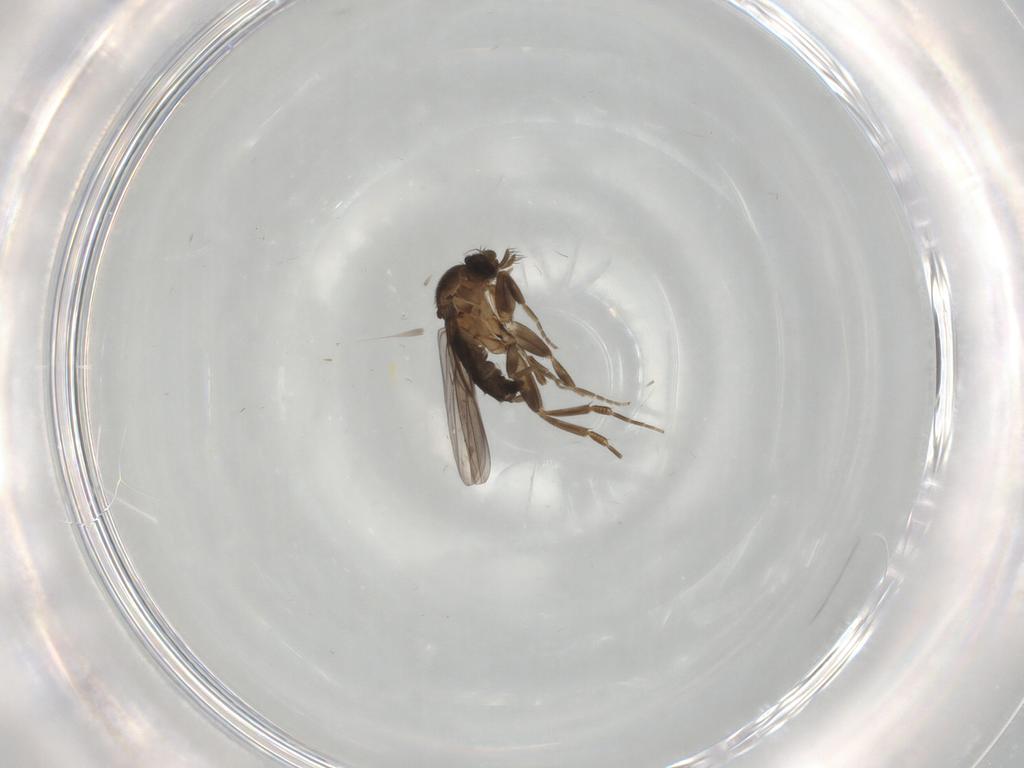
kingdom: Animalia
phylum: Arthropoda
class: Insecta
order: Diptera
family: Limoniidae
